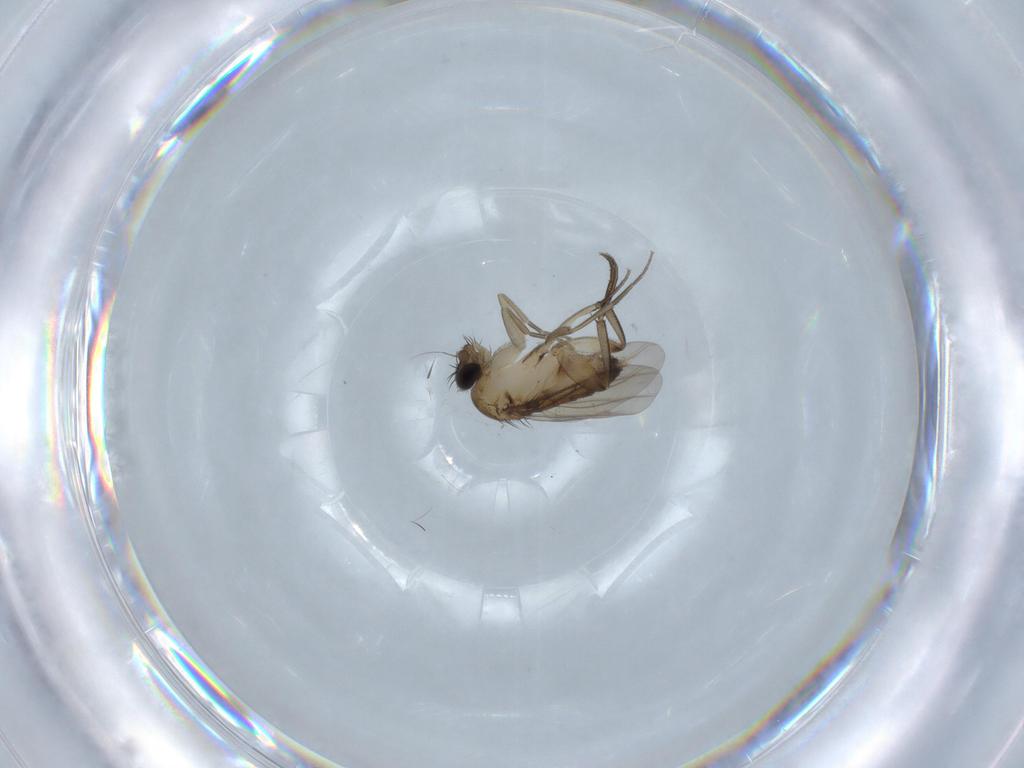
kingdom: Animalia
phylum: Arthropoda
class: Insecta
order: Diptera
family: Phoridae
